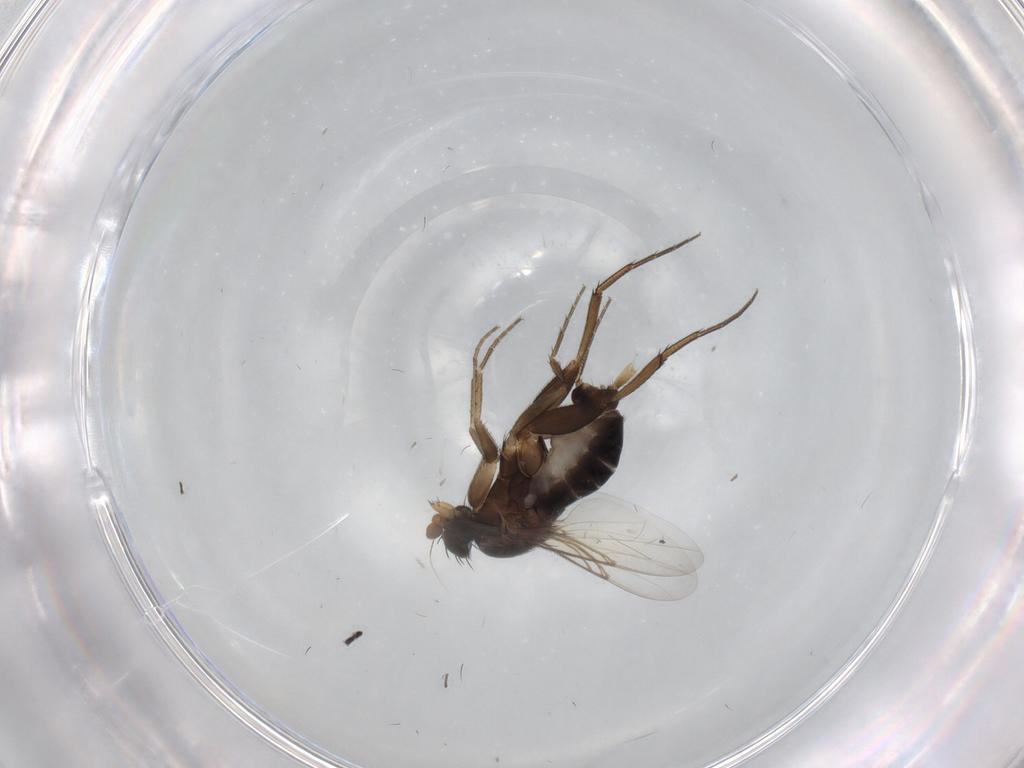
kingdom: Animalia
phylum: Arthropoda
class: Insecta
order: Diptera
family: Phoridae
